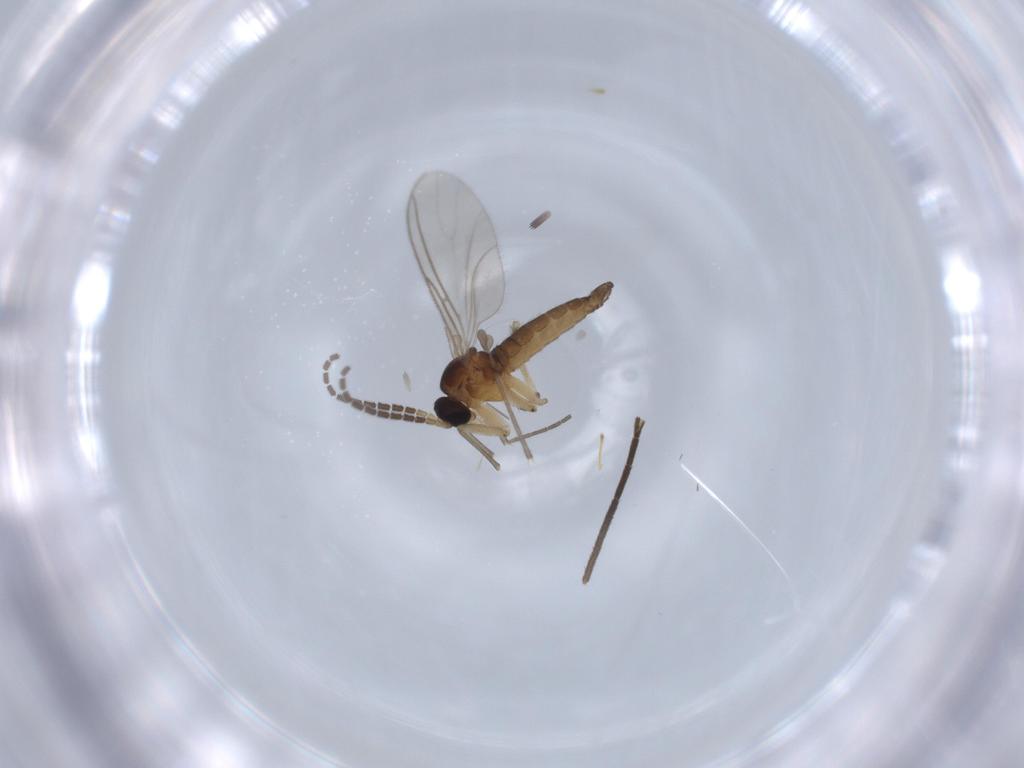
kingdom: Animalia
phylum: Arthropoda
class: Insecta
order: Diptera
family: Sciaridae
